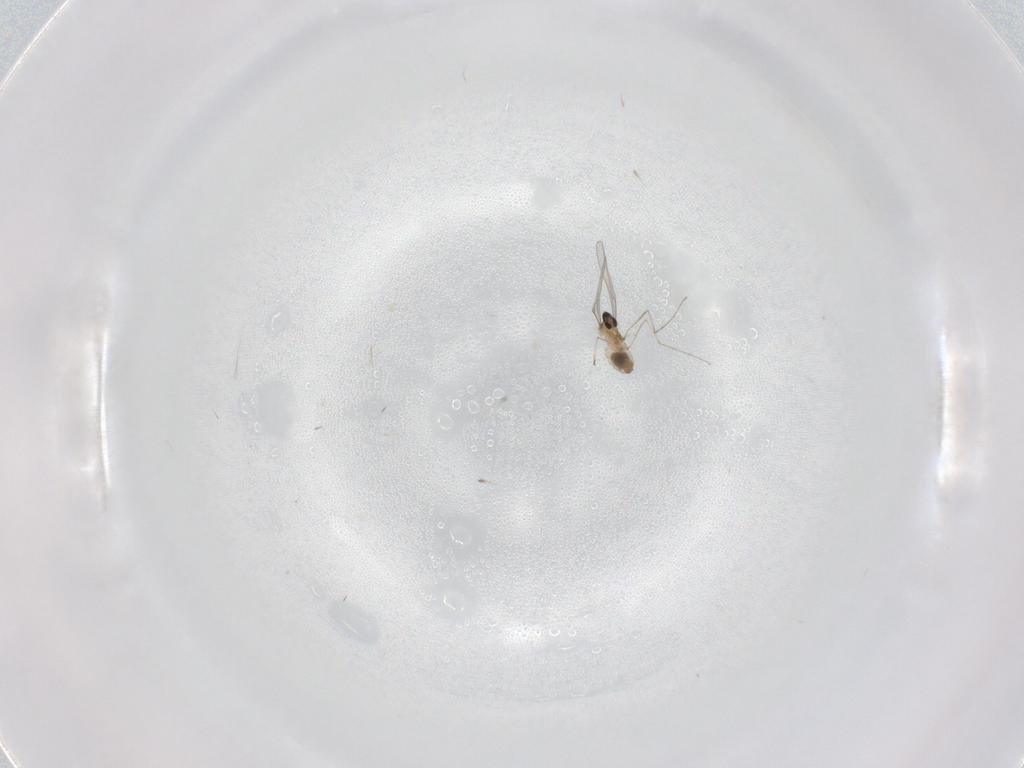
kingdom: Animalia
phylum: Arthropoda
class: Insecta
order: Diptera
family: Cecidomyiidae
